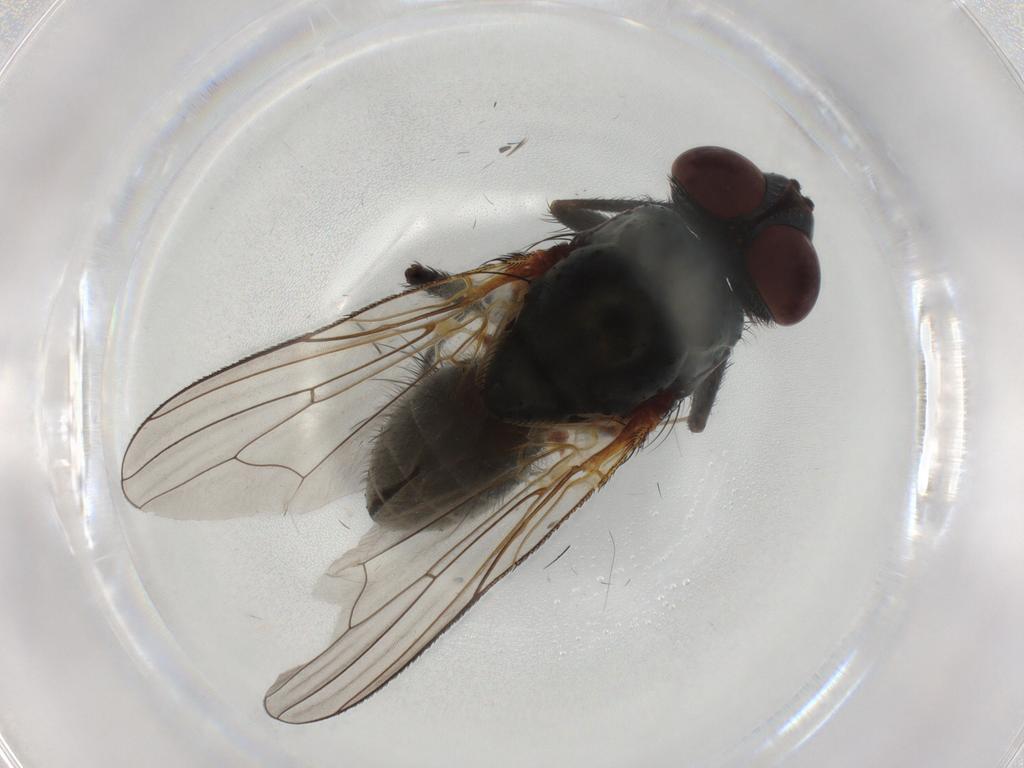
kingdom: Animalia
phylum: Arthropoda
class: Insecta
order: Diptera
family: Anthomyiidae
